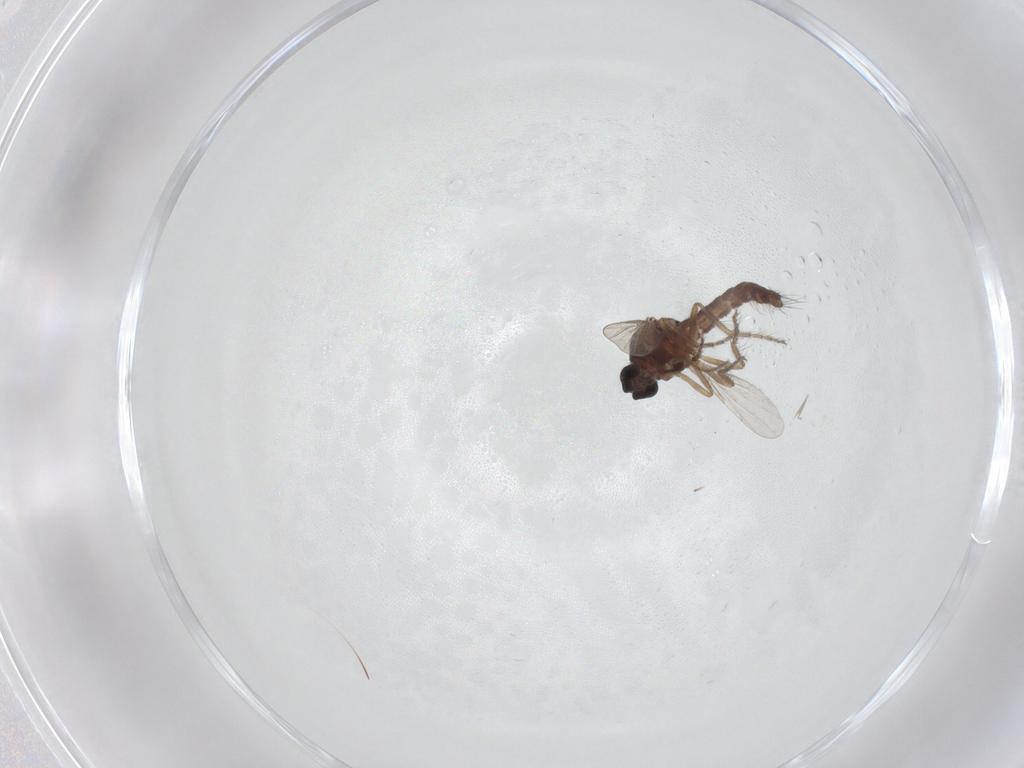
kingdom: Animalia
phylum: Arthropoda
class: Insecta
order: Diptera
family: Ceratopogonidae
